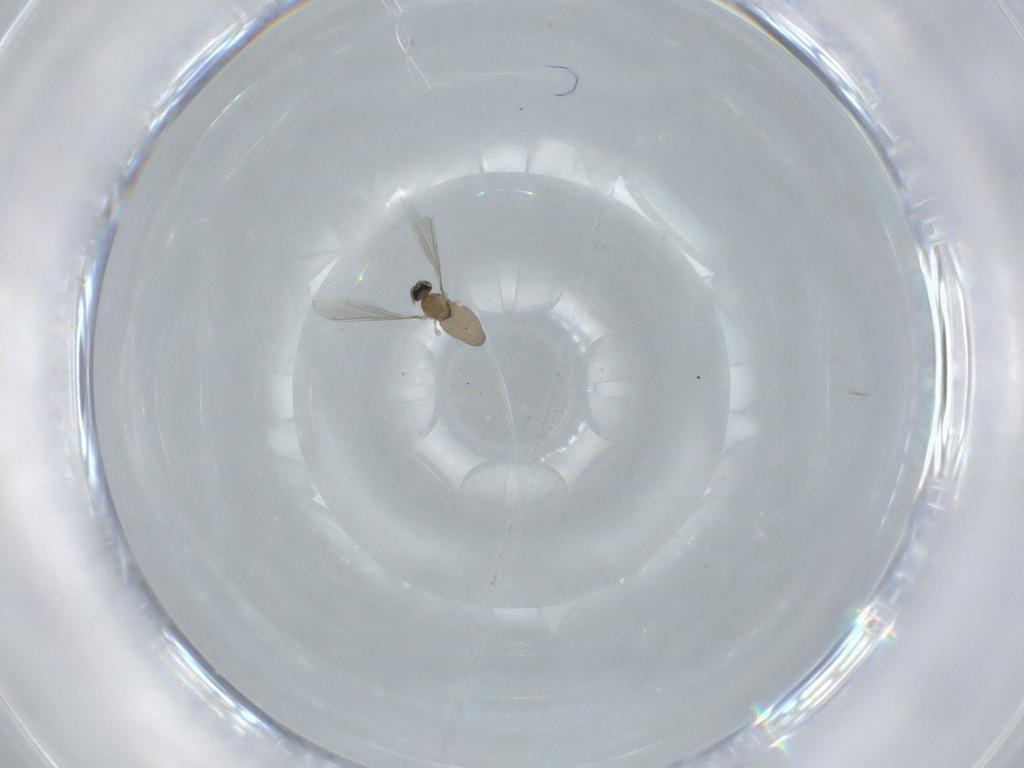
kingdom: Animalia
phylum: Arthropoda
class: Insecta
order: Diptera
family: Cecidomyiidae
